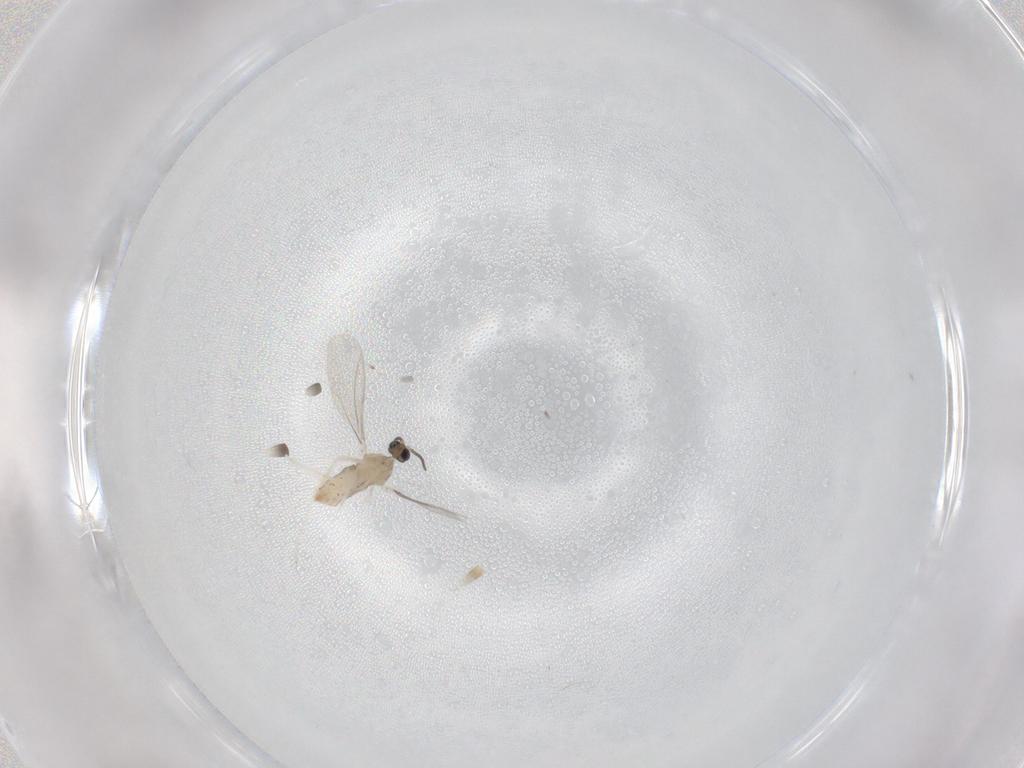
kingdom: Animalia
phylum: Arthropoda
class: Insecta
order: Diptera
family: Cecidomyiidae
